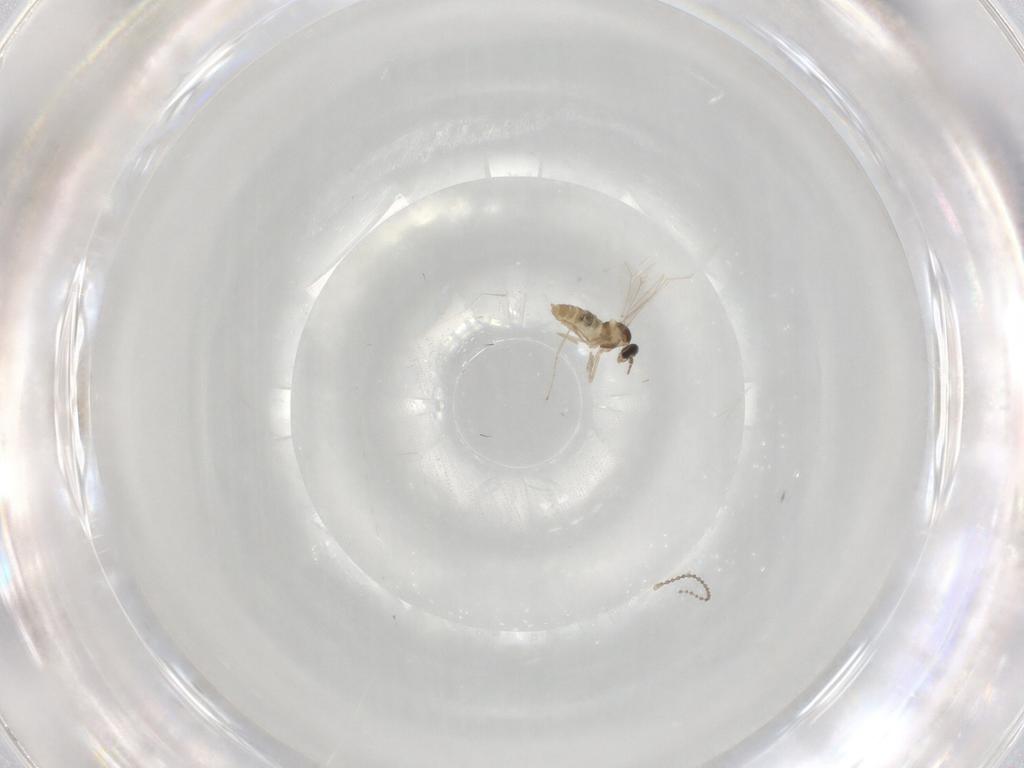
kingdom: Animalia
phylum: Arthropoda
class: Insecta
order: Diptera
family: Cecidomyiidae
